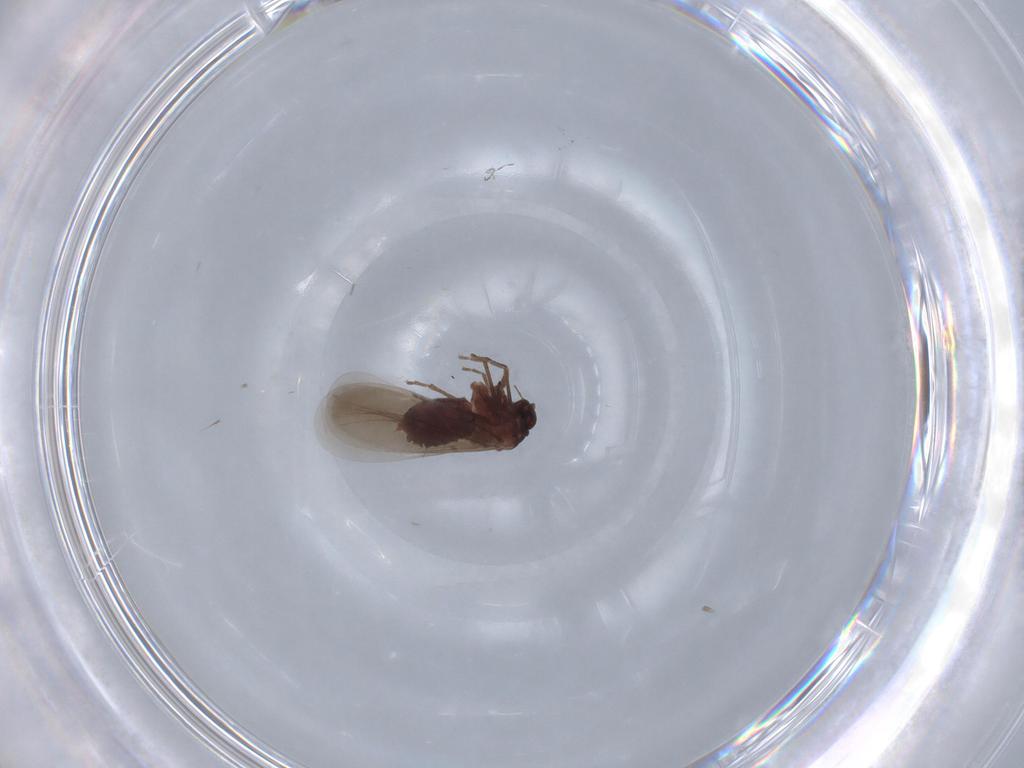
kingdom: Animalia
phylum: Arthropoda
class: Insecta
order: Hemiptera
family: Aleyrodidae
